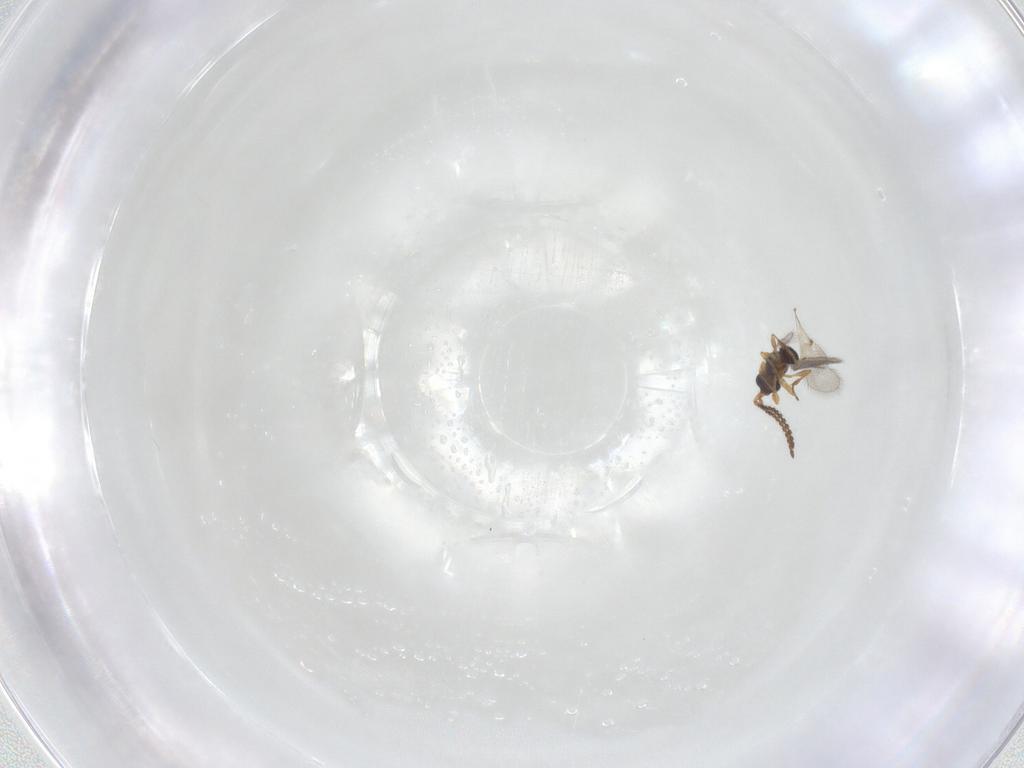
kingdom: Animalia
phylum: Arthropoda
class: Insecta
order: Hymenoptera
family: Diapriidae
